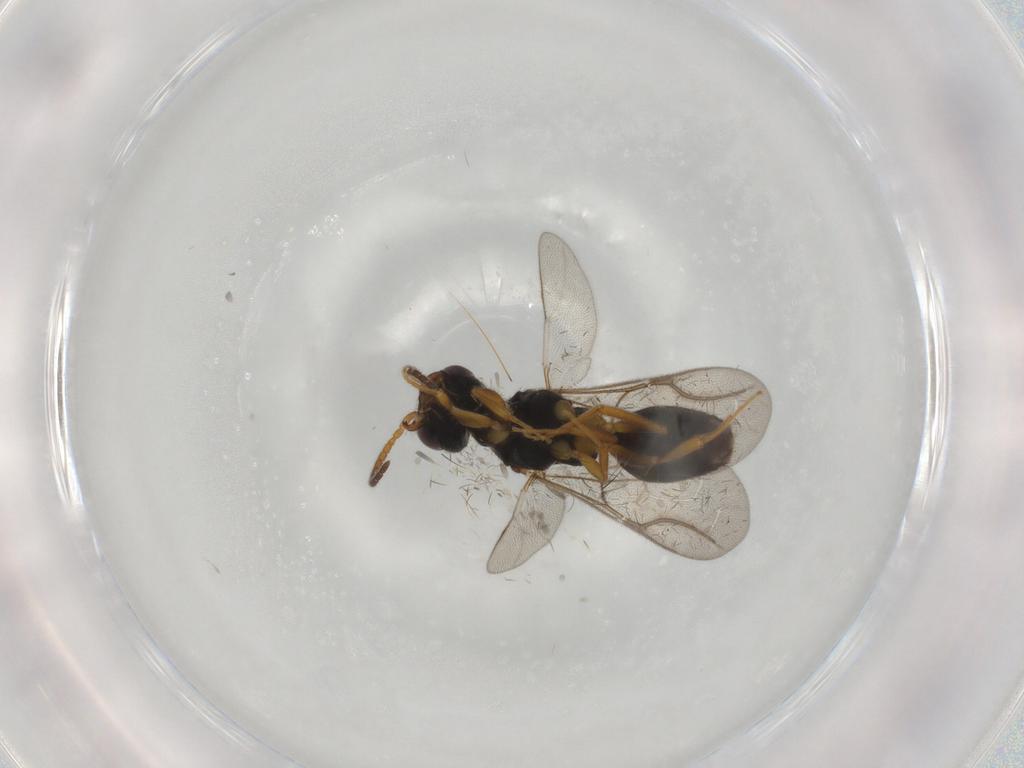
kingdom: Animalia
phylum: Arthropoda
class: Insecta
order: Hymenoptera
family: Bethylidae
